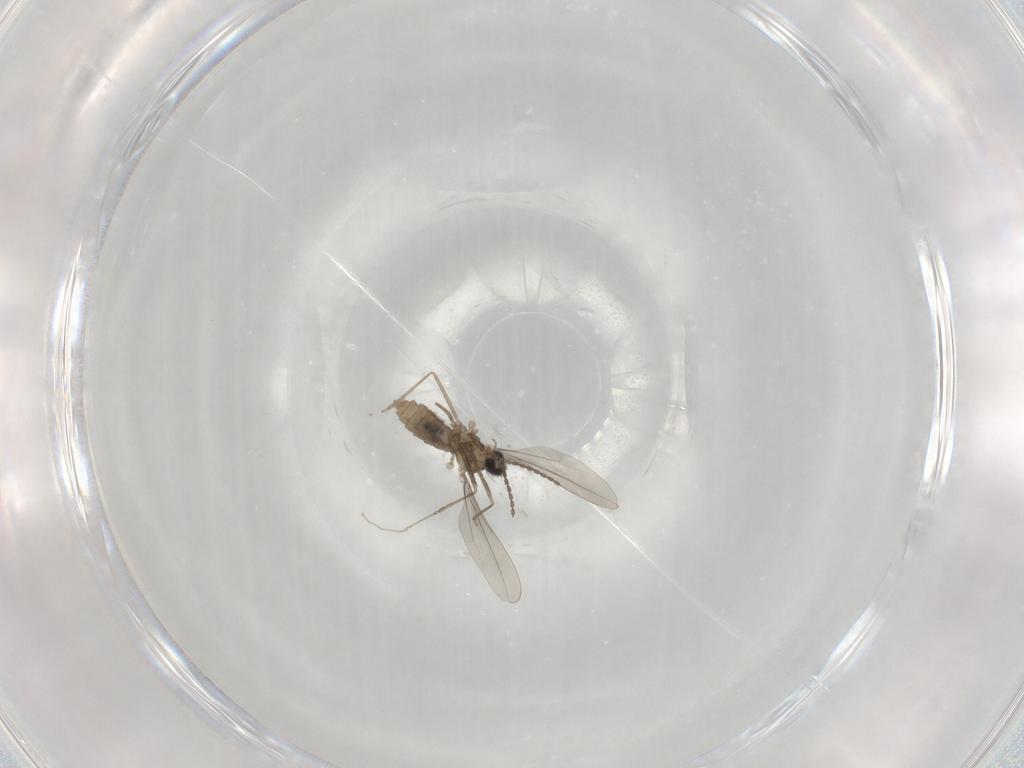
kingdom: Animalia
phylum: Arthropoda
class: Insecta
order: Diptera
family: Cecidomyiidae
